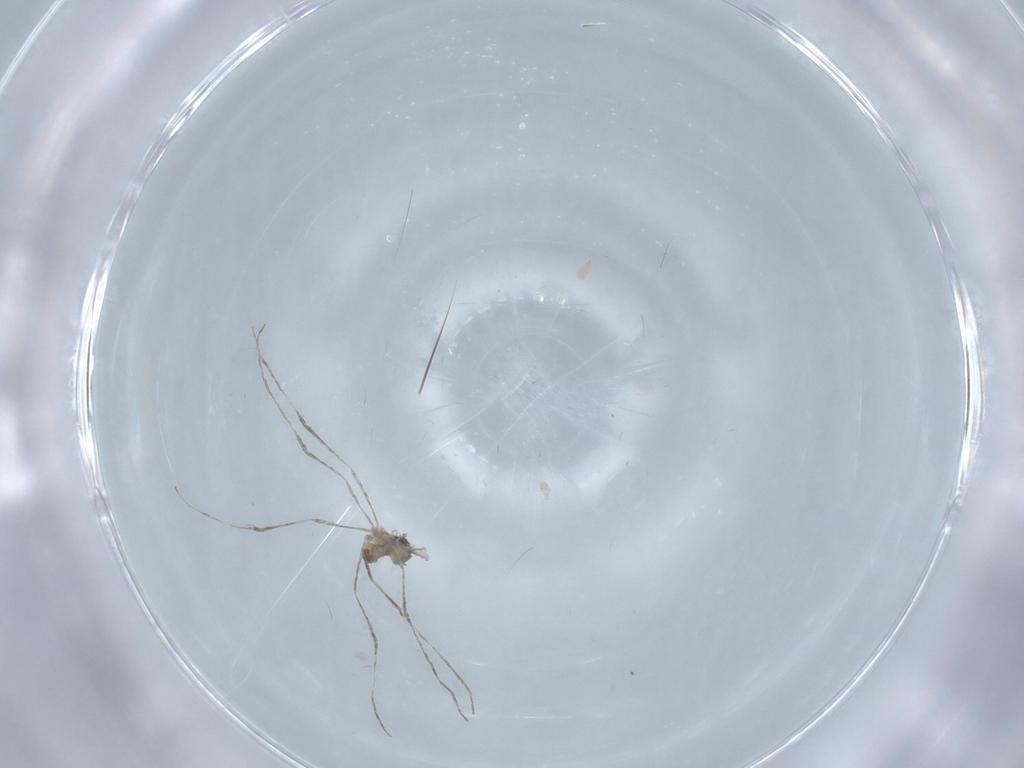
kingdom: Animalia
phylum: Arthropoda
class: Insecta
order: Diptera
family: Cecidomyiidae
